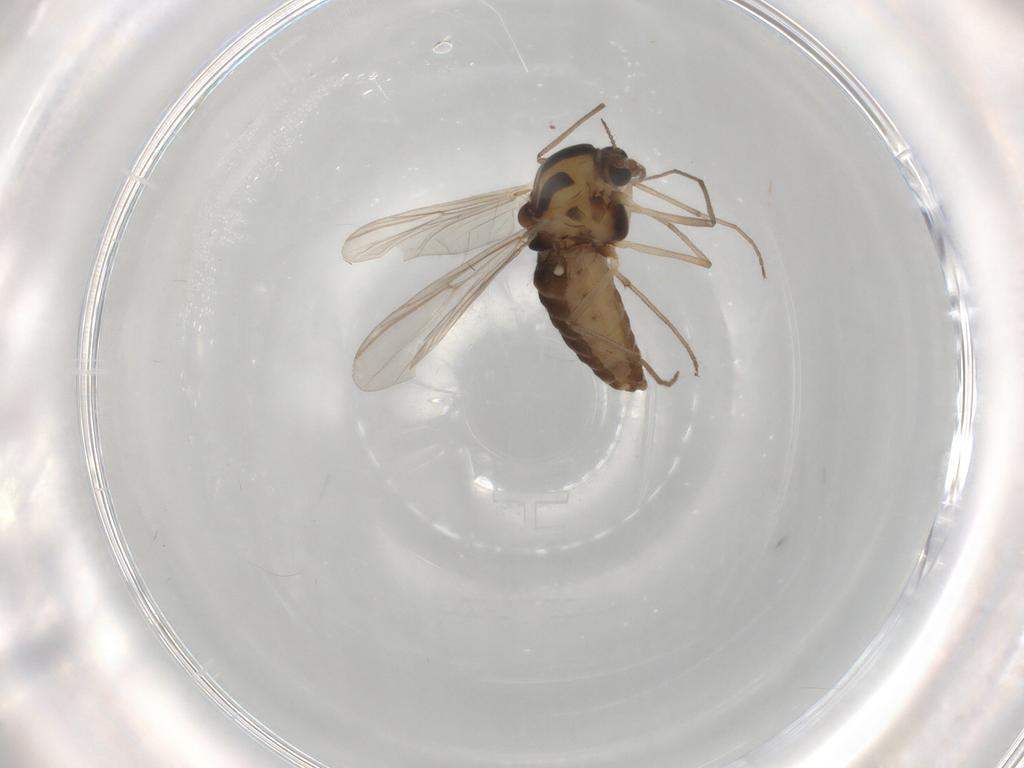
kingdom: Animalia
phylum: Arthropoda
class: Insecta
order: Diptera
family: Chironomidae
